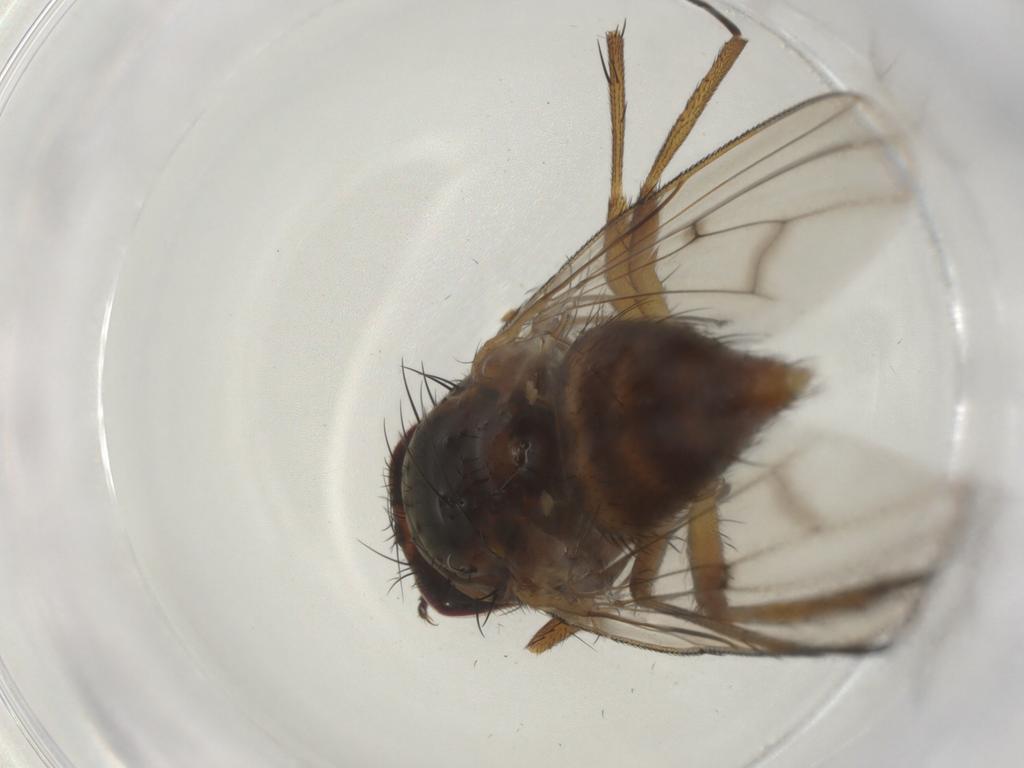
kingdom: Animalia
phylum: Arthropoda
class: Insecta
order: Diptera
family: Anthomyiidae
